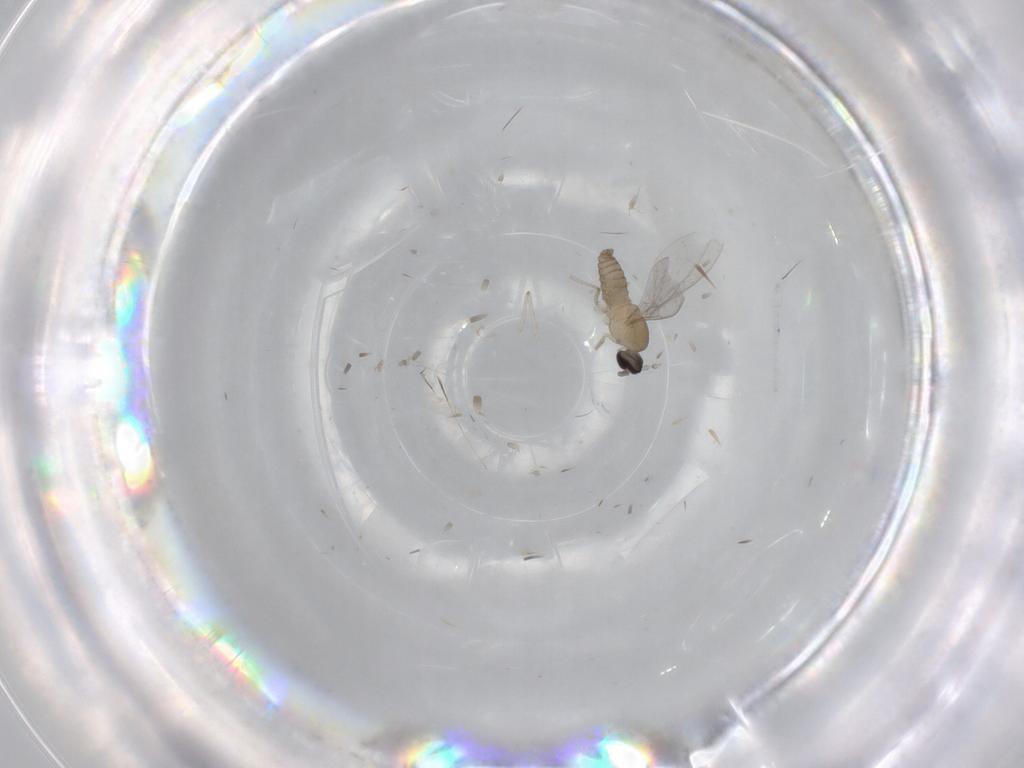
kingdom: Animalia
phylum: Arthropoda
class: Insecta
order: Diptera
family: Cecidomyiidae
